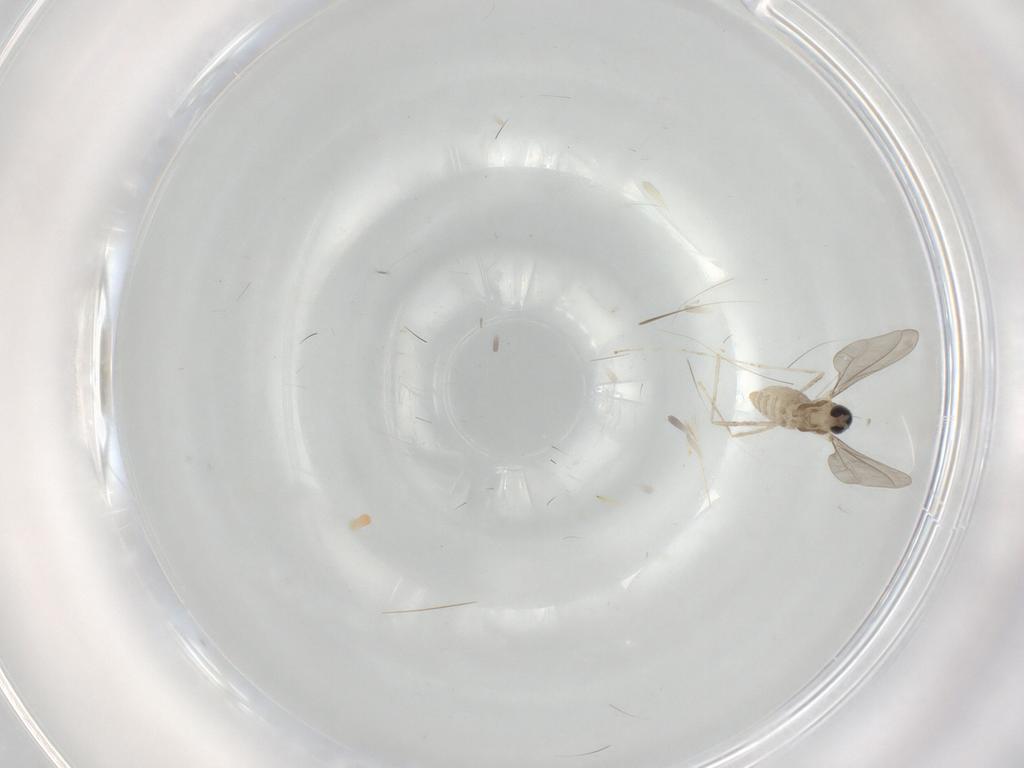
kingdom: Animalia
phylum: Arthropoda
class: Insecta
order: Diptera
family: Cecidomyiidae
